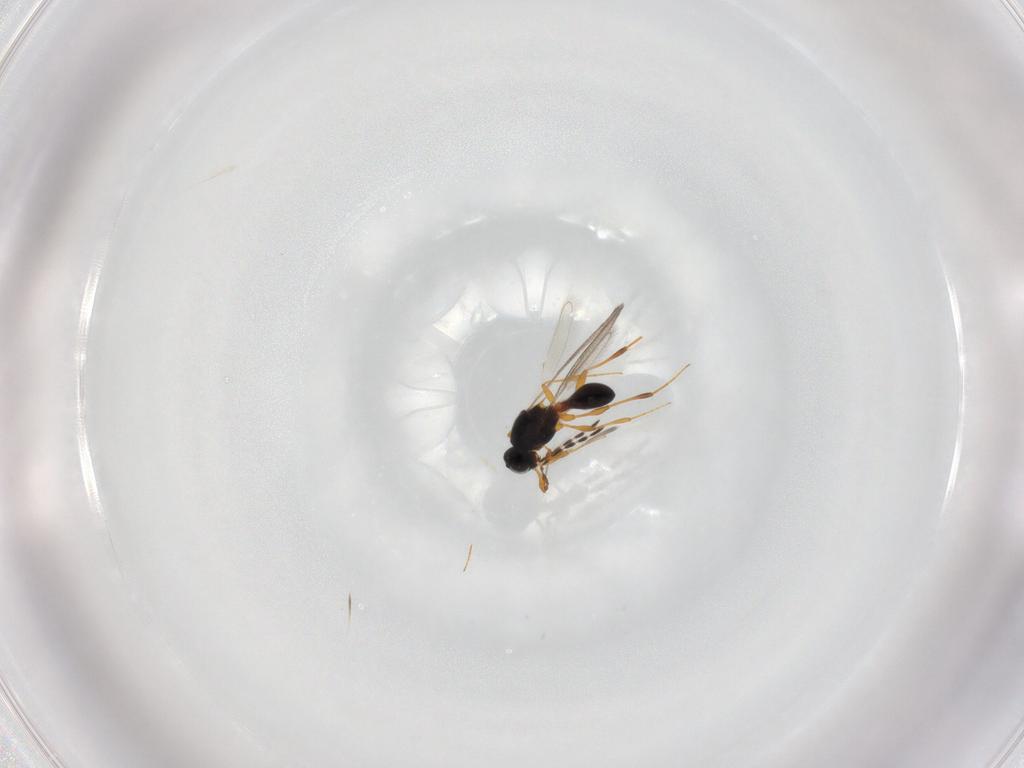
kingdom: Animalia
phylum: Arthropoda
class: Insecta
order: Hymenoptera
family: Platygastridae
